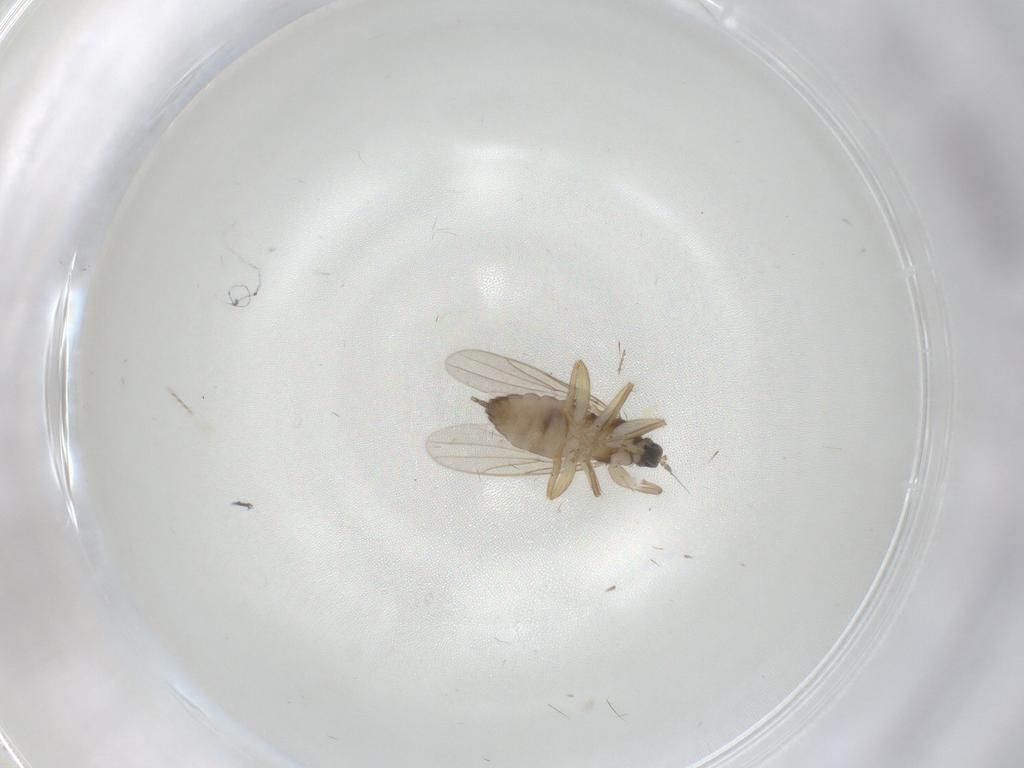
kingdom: Animalia
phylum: Arthropoda
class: Insecta
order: Diptera
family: Hybotidae
